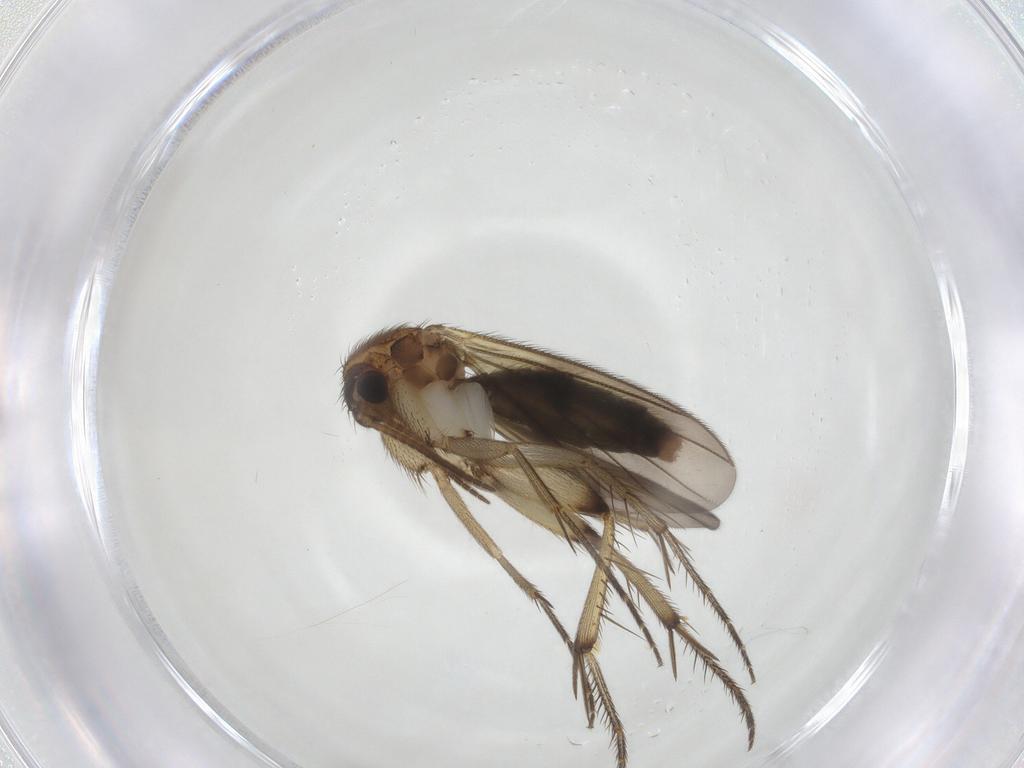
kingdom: Animalia
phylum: Arthropoda
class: Insecta
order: Diptera
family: Mycetophilidae
